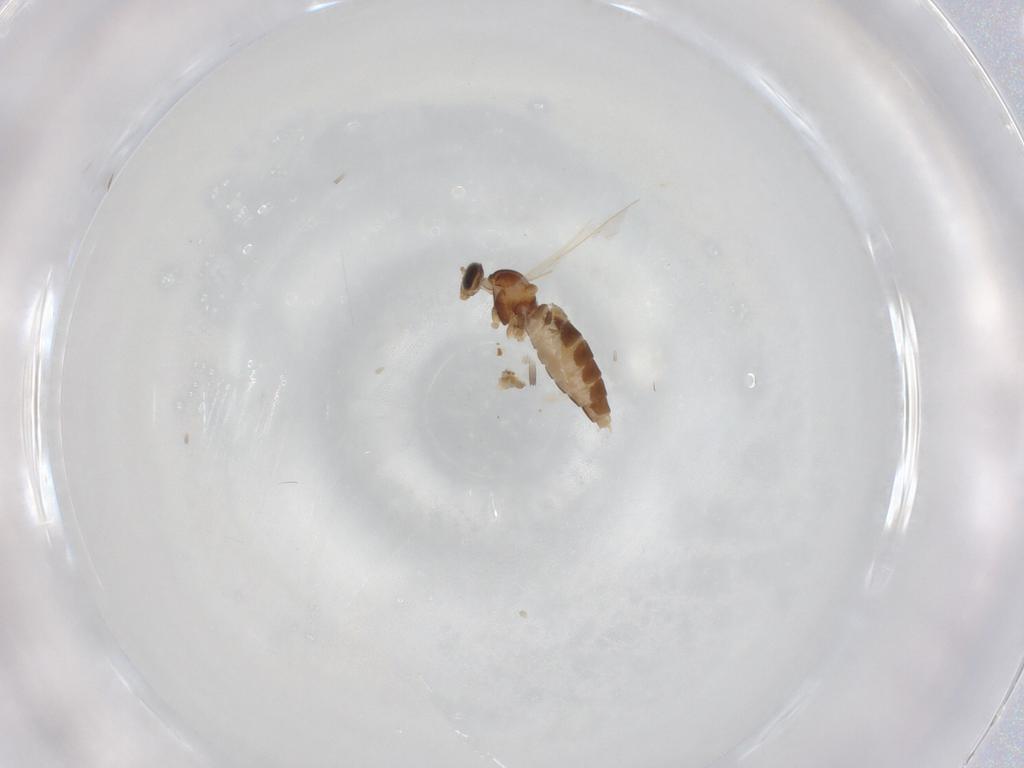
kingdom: Animalia
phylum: Arthropoda
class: Insecta
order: Diptera
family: Cecidomyiidae
